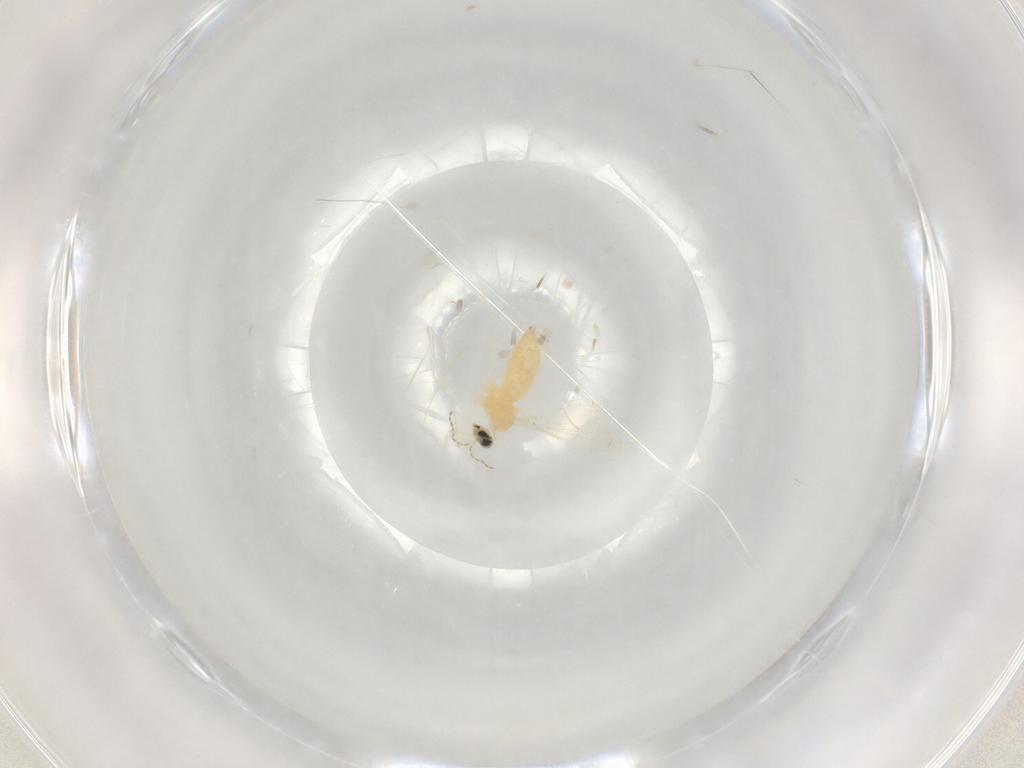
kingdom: Animalia
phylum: Arthropoda
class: Insecta
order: Diptera
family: Cecidomyiidae
